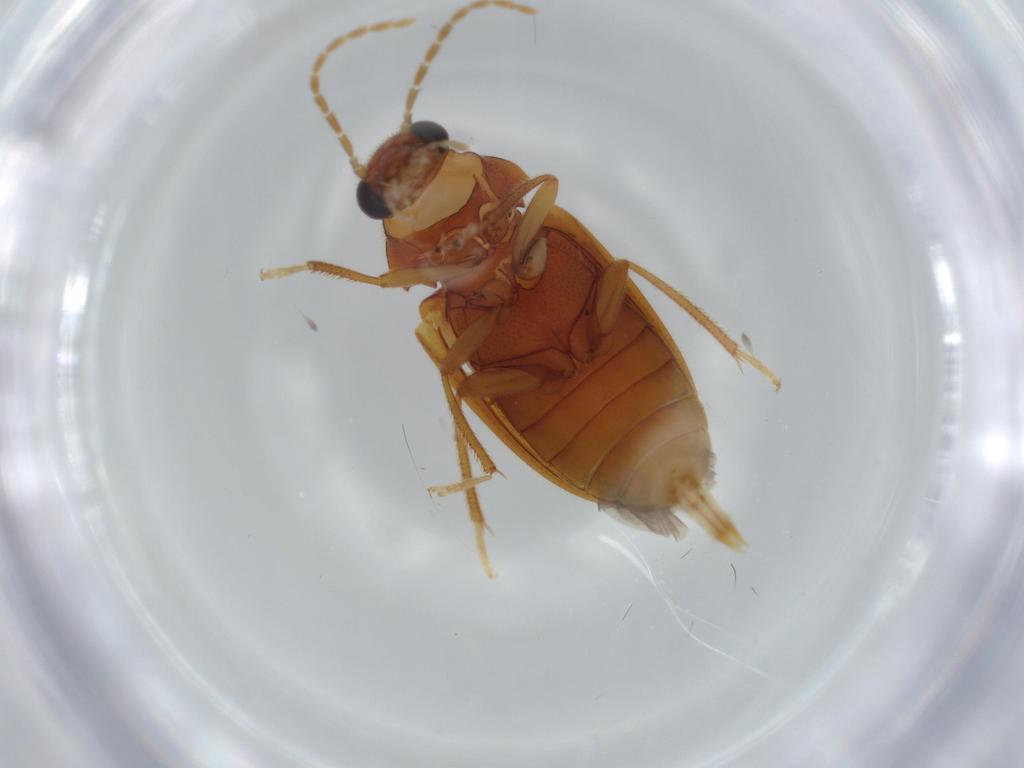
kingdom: Animalia
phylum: Arthropoda
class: Insecta
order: Coleoptera
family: Ptilodactylidae
